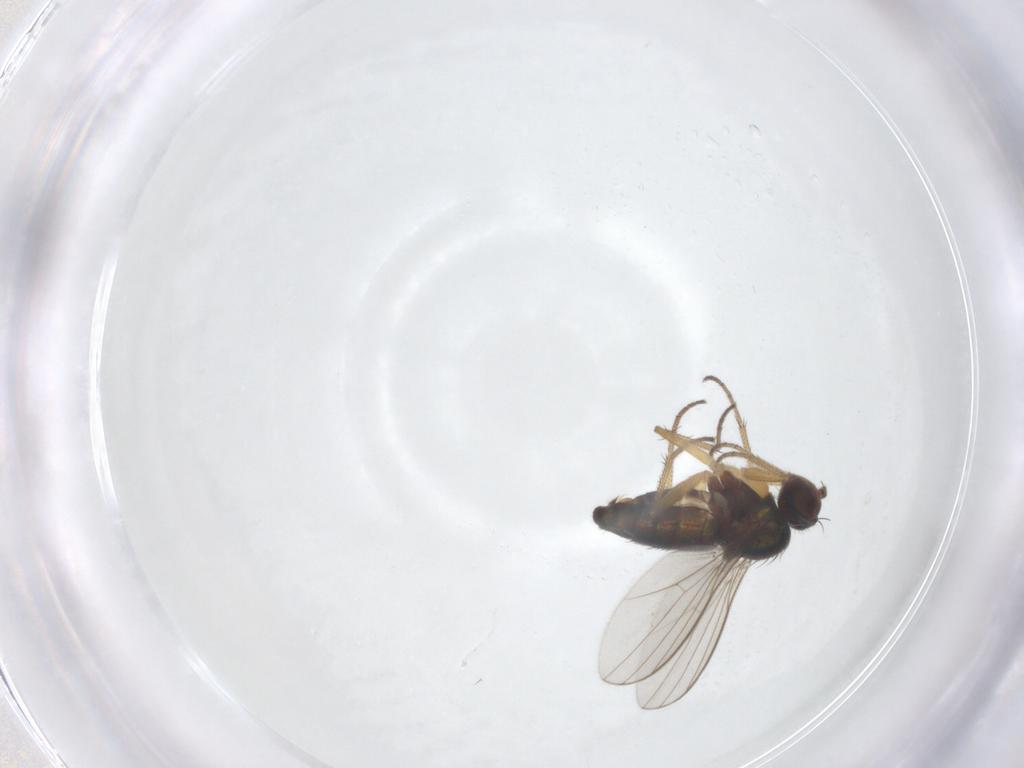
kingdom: Animalia
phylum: Arthropoda
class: Insecta
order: Diptera
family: Dolichopodidae
